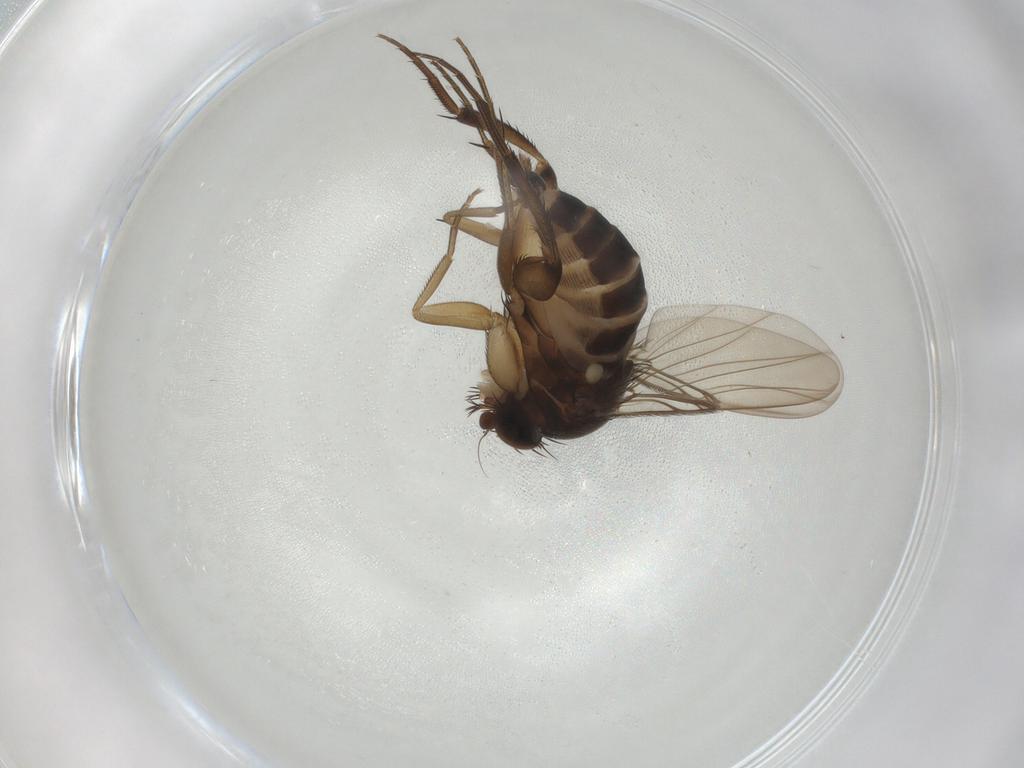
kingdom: Animalia
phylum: Arthropoda
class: Insecta
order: Diptera
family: Phoridae
